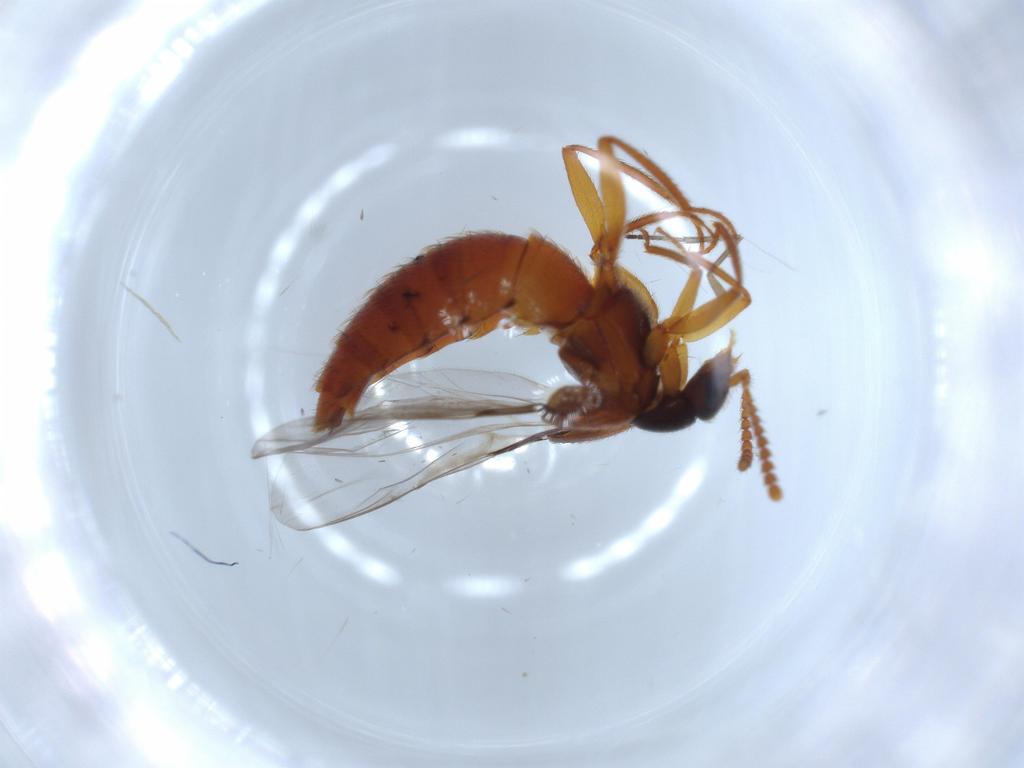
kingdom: Animalia
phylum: Arthropoda
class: Insecta
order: Coleoptera
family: Staphylinidae
